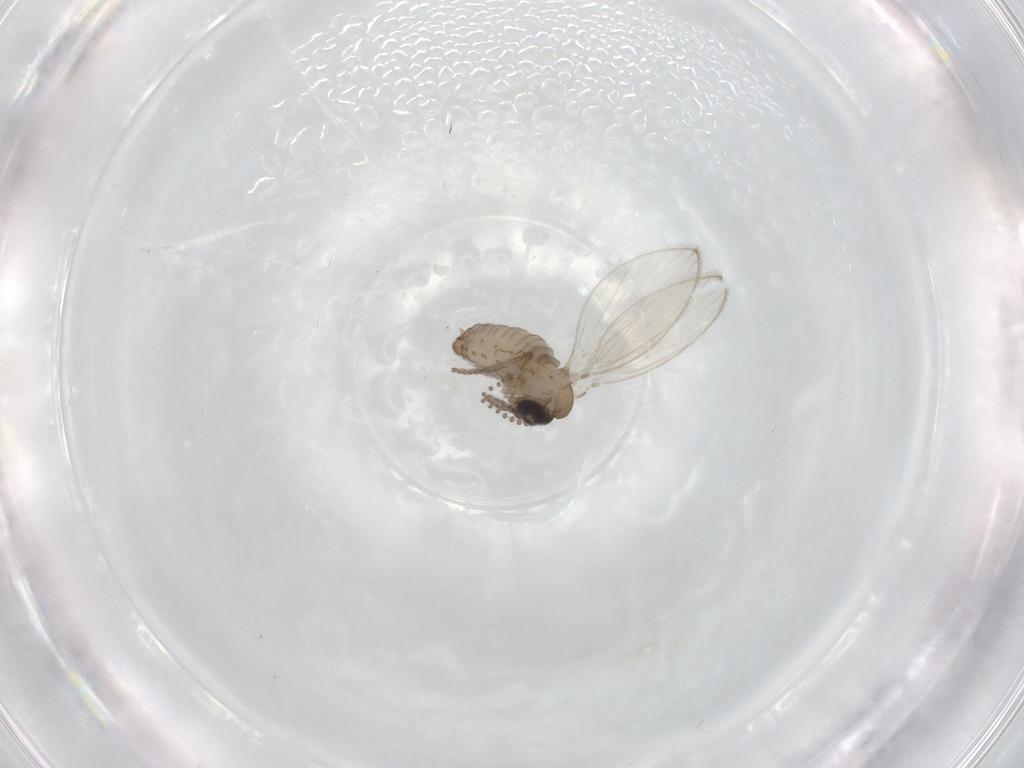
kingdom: Animalia
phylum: Arthropoda
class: Insecta
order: Diptera
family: Psychodidae
